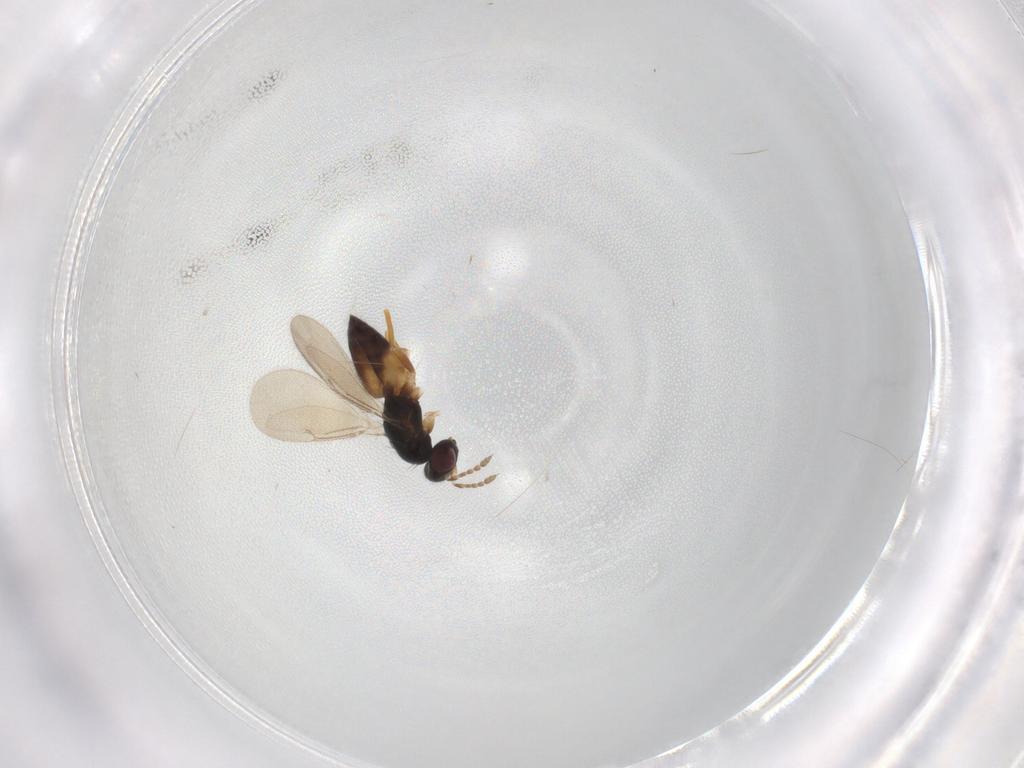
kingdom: Animalia
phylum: Arthropoda
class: Insecta
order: Hymenoptera
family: Eulophidae
